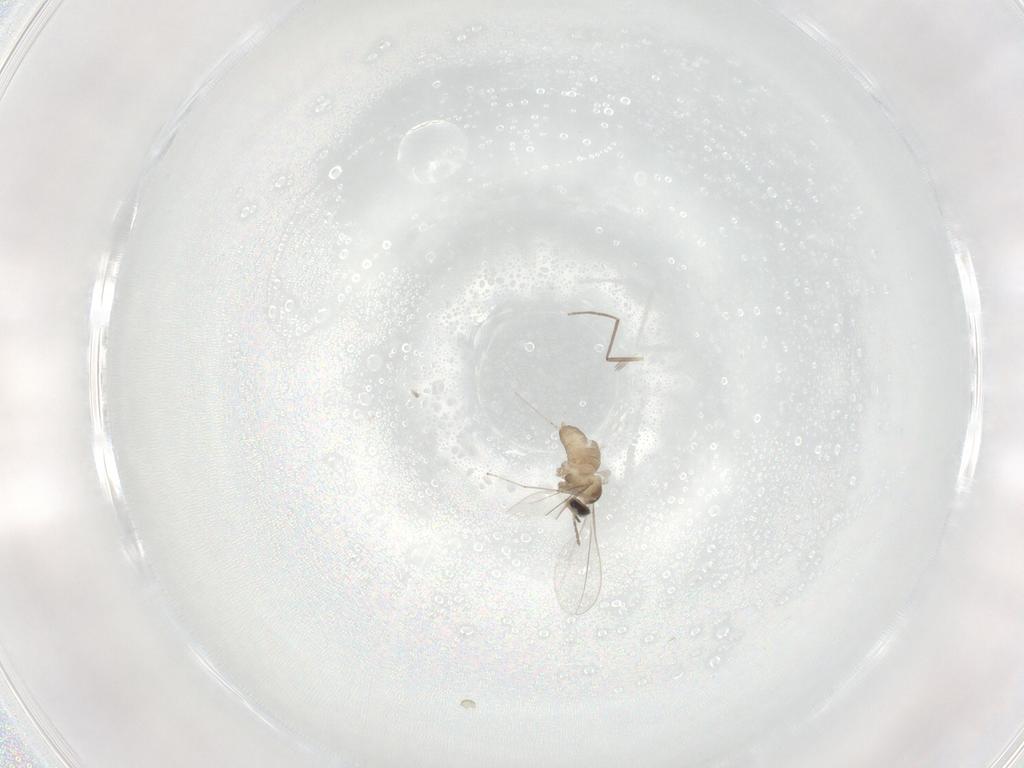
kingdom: Animalia
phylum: Arthropoda
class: Insecta
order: Diptera
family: Cecidomyiidae
